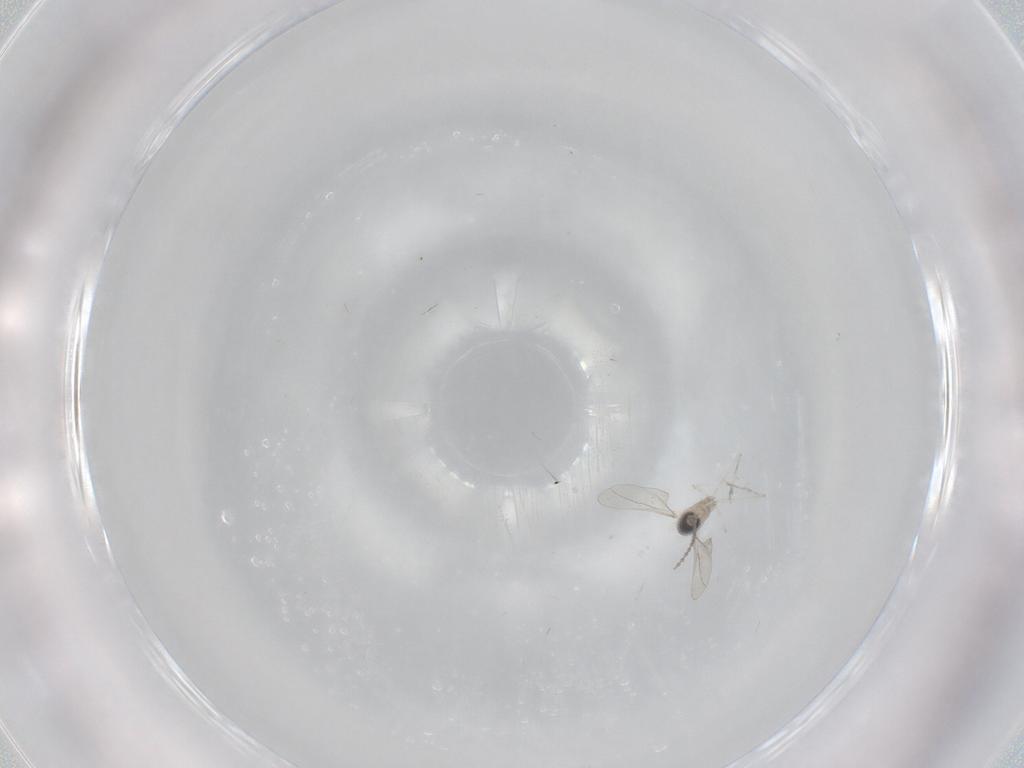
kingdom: Animalia
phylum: Arthropoda
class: Insecta
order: Diptera
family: Cecidomyiidae
